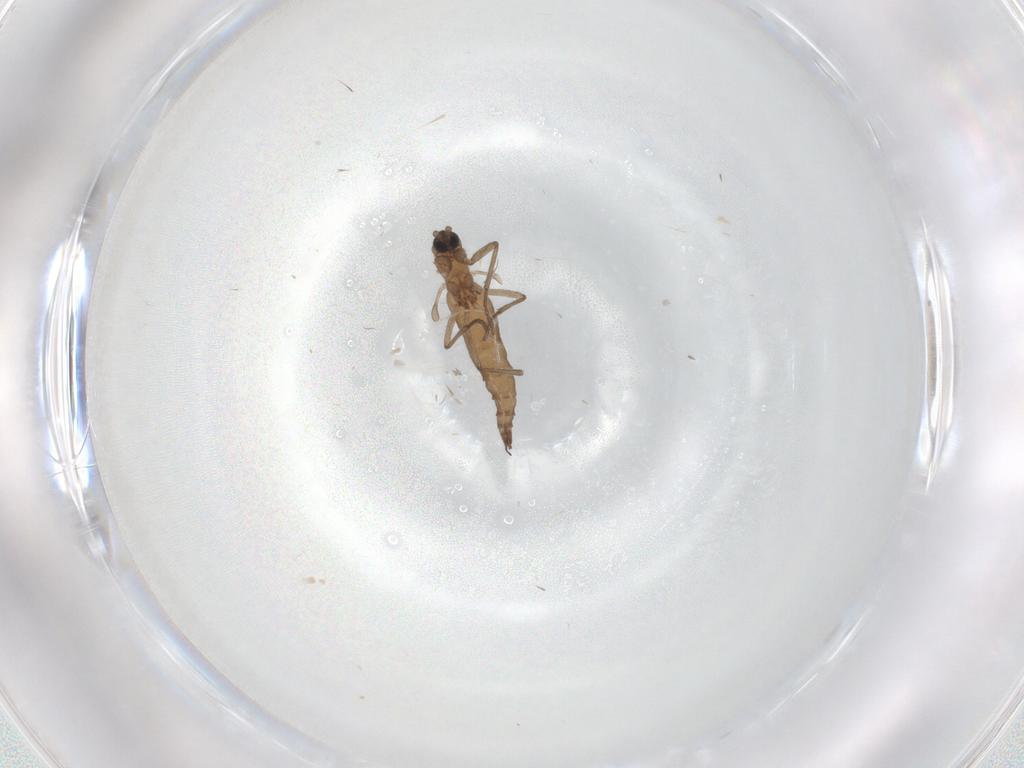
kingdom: Animalia
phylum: Arthropoda
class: Insecta
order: Diptera
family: Sciaridae
